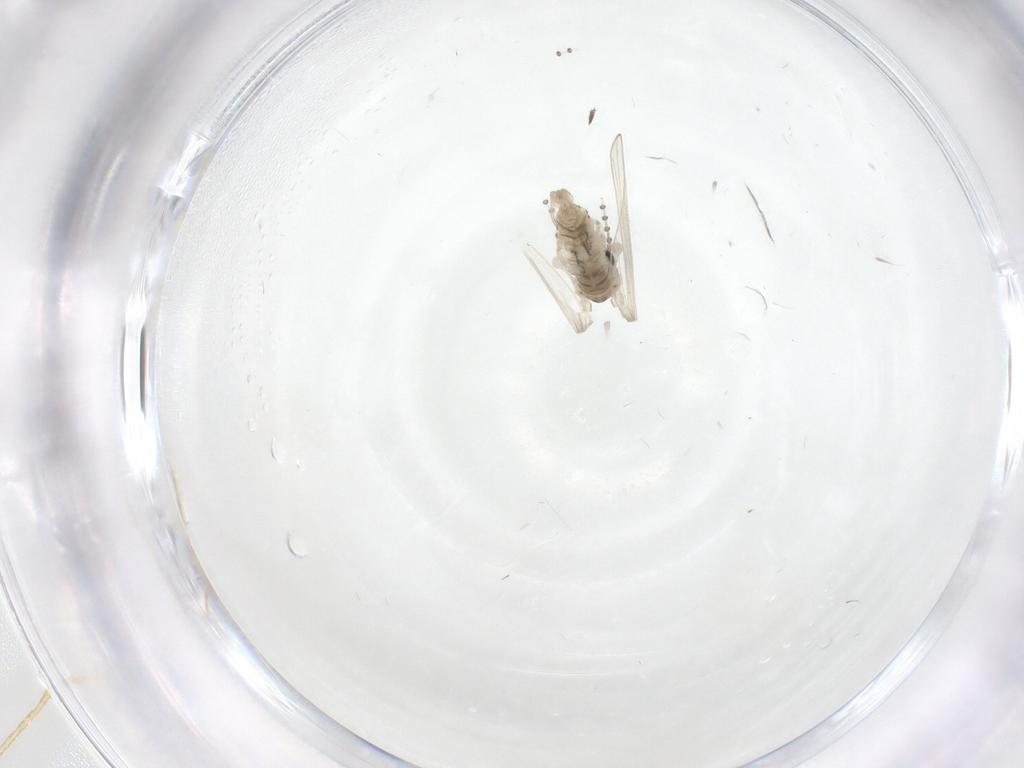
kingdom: Animalia
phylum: Arthropoda
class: Insecta
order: Diptera
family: Psychodidae
